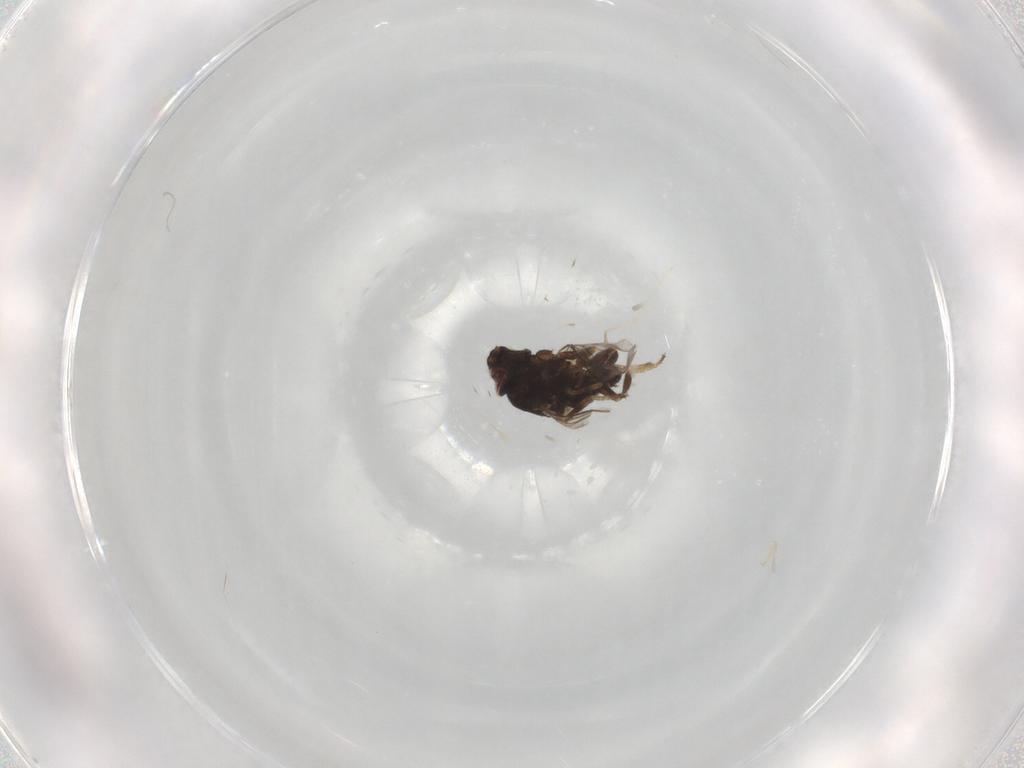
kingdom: Animalia
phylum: Arthropoda
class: Insecta
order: Diptera
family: Chloropidae
